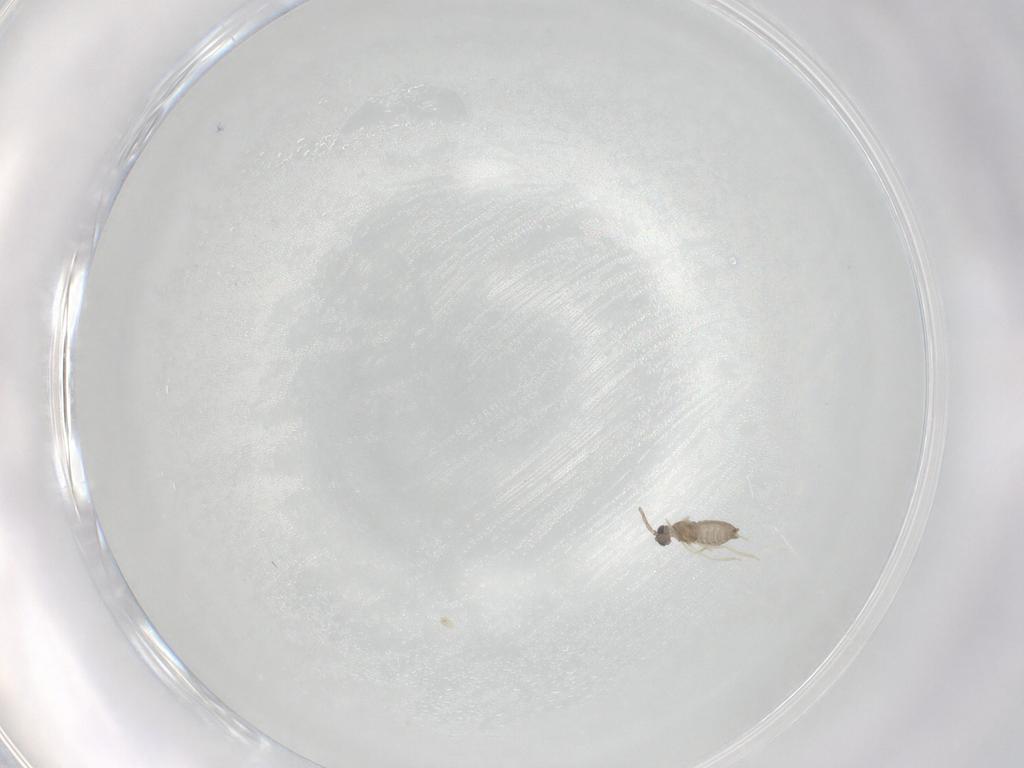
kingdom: Animalia
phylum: Arthropoda
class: Insecta
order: Diptera
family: Cecidomyiidae
